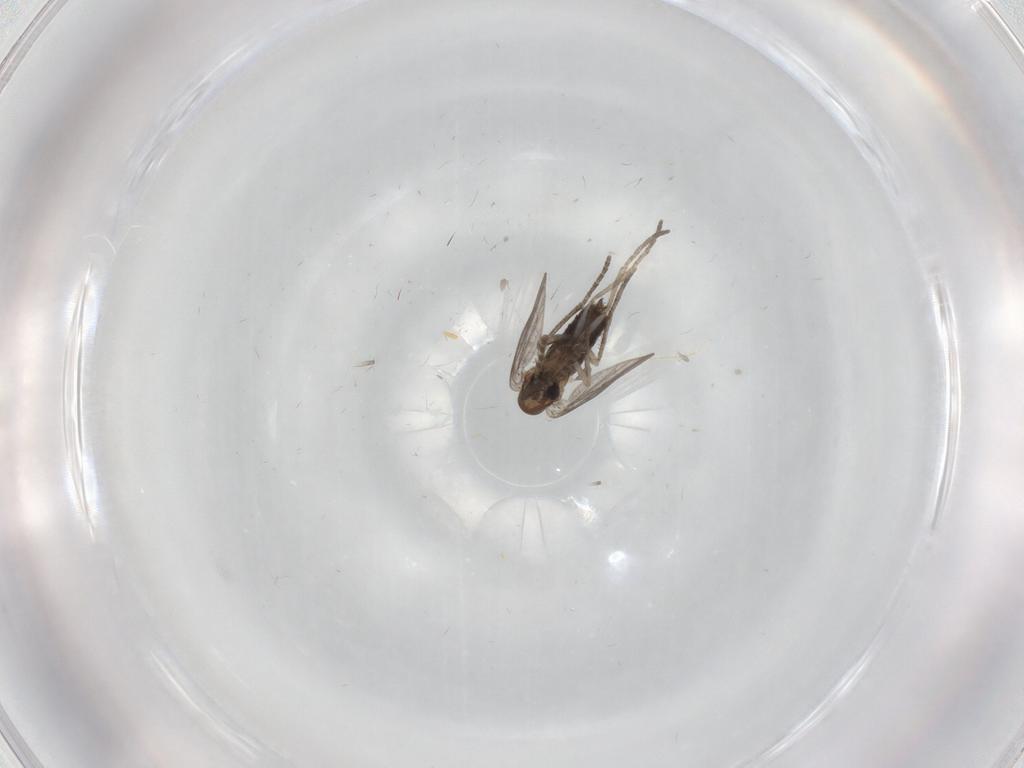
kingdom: Animalia
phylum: Arthropoda
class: Insecta
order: Diptera
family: Cecidomyiidae
